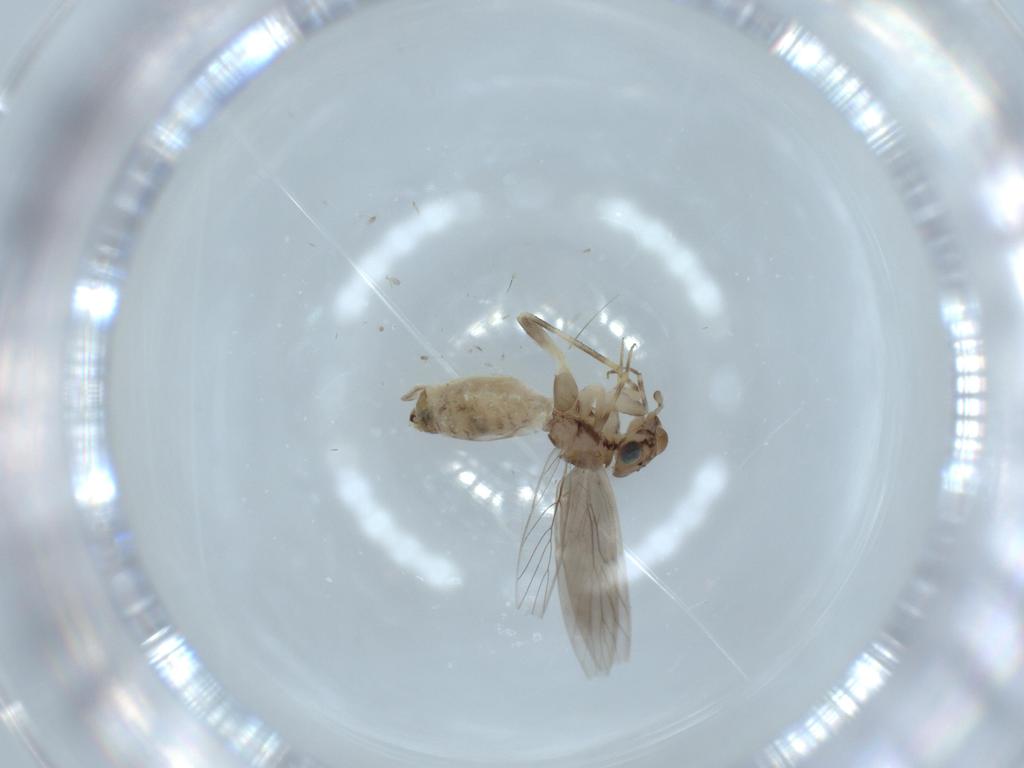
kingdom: Animalia
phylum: Arthropoda
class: Insecta
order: Psocodea
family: Lepidopsocidae
